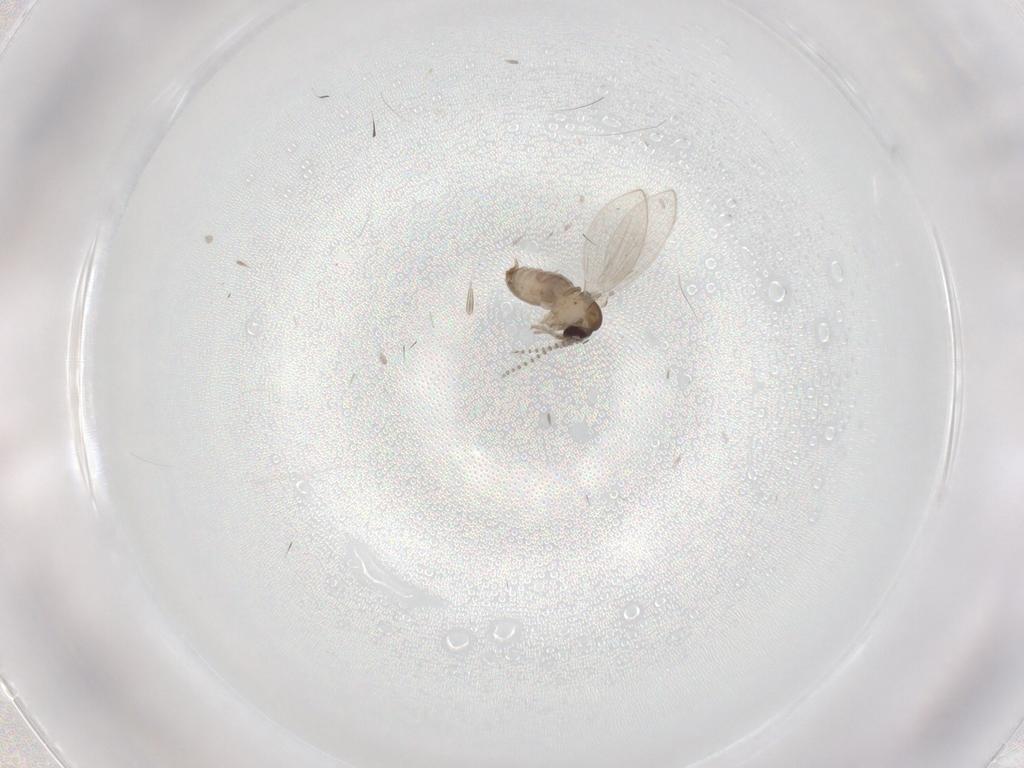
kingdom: Animalia
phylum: Arthropoda
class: Insecta
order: Diptera
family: Psychodidae
